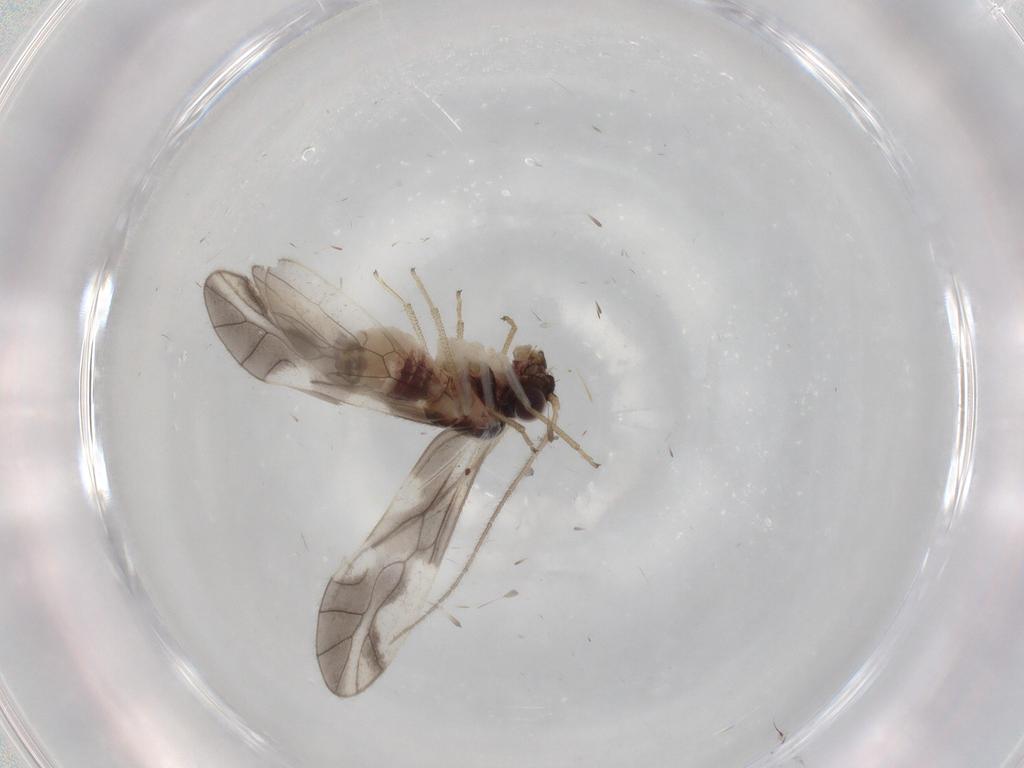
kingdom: Animalia
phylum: Arthropoda
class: Insecta
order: Psocodea
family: Caeciliusidae
